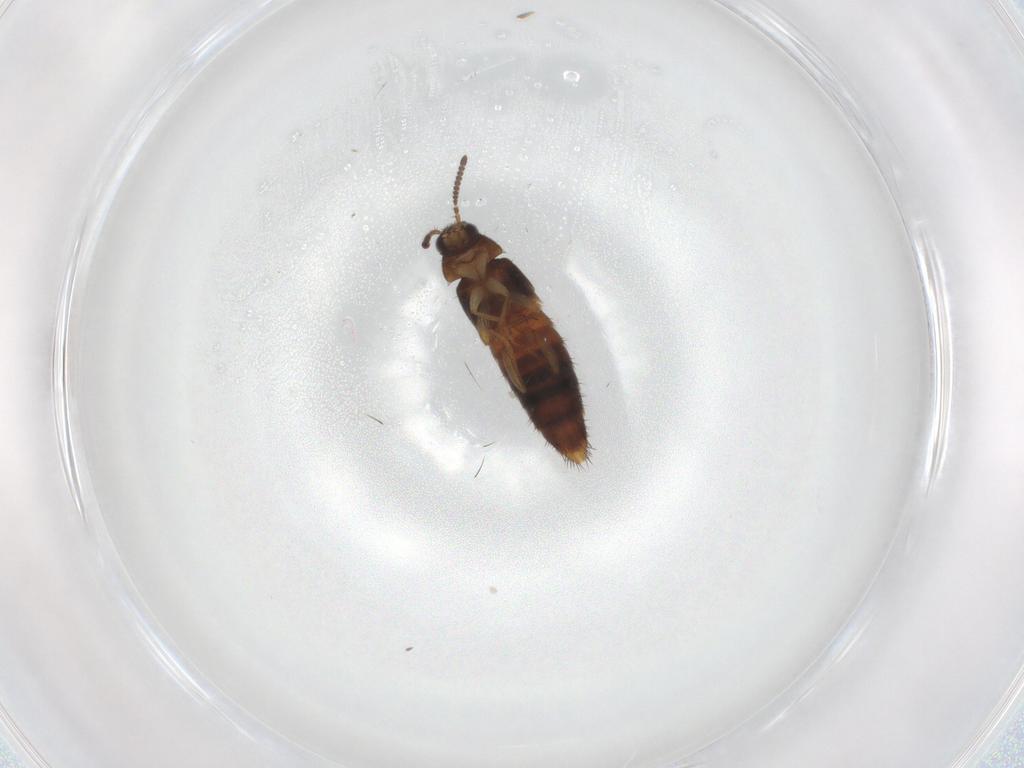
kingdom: Animalia
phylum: Arthropoda
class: Insecta
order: Coleoptera
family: Staphylinidae
